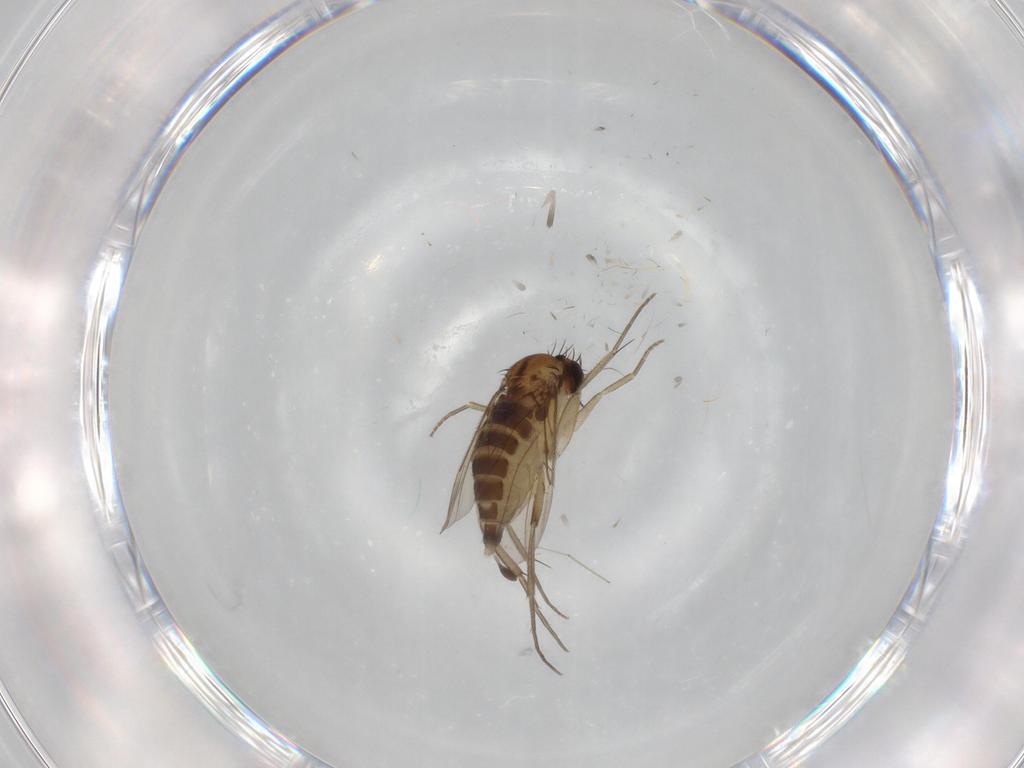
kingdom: Animalia
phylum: Arthropoda
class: Insecta
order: Diptera
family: Cecidomyiidae
